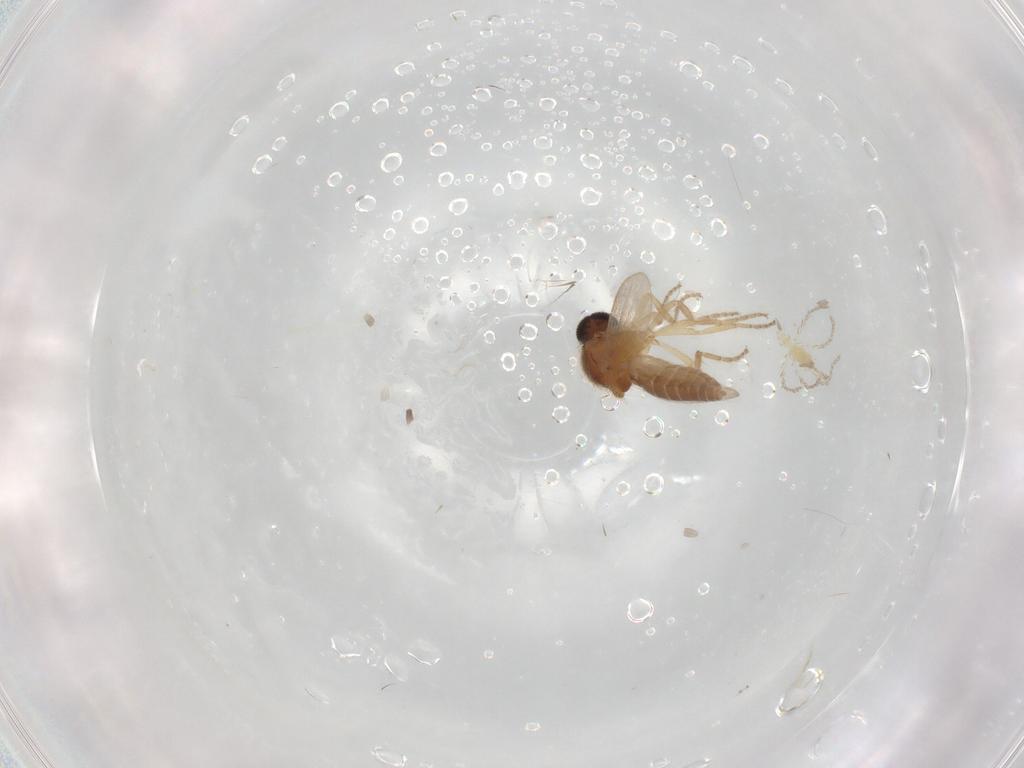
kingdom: Animalia
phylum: Arthropoda
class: Insecta
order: Diptera
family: Ceratopogonidae
